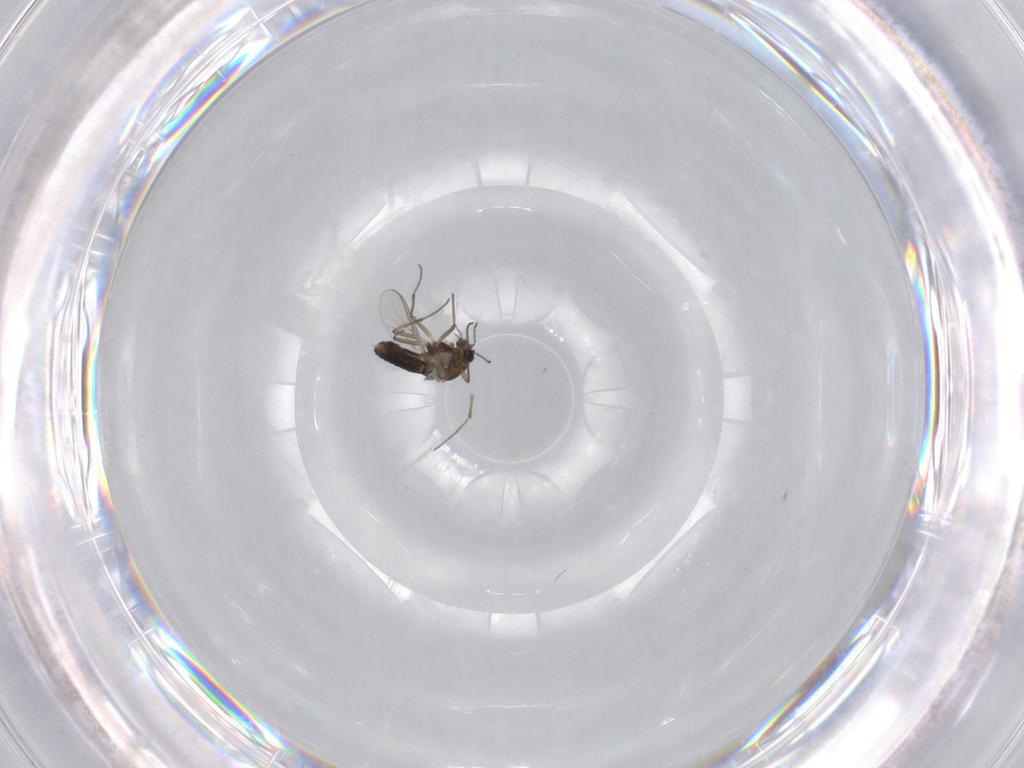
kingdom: Animalia
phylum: Arthropoda
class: Insecta
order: Diptera
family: Chironomidae
